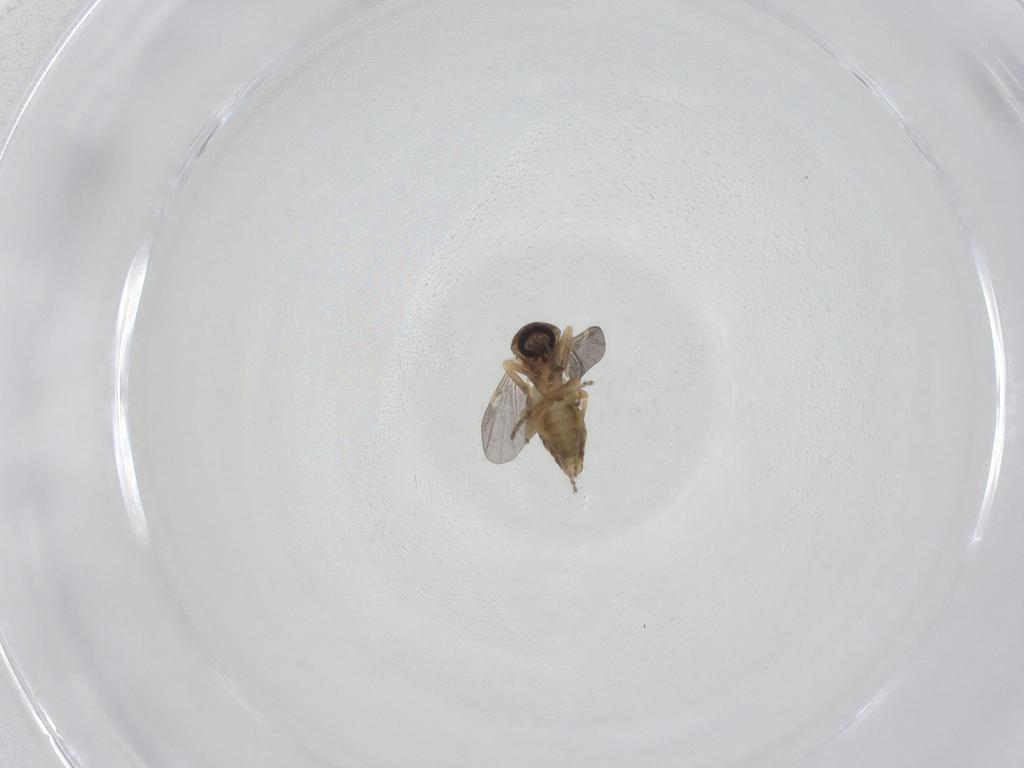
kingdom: Animalia
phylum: Arthropoda
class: Insecta
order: Diptera
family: Ceratopogonidae
